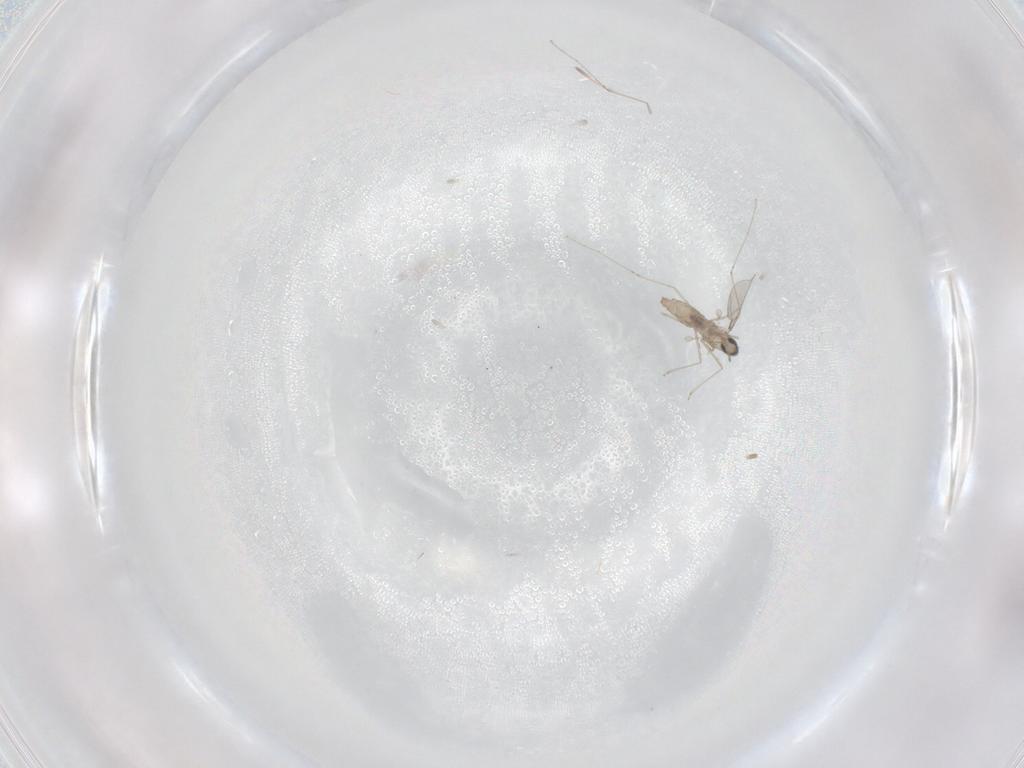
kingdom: Animalia
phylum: Arthropoda
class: Insecta
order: Diptera
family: Cecidomyiidae
